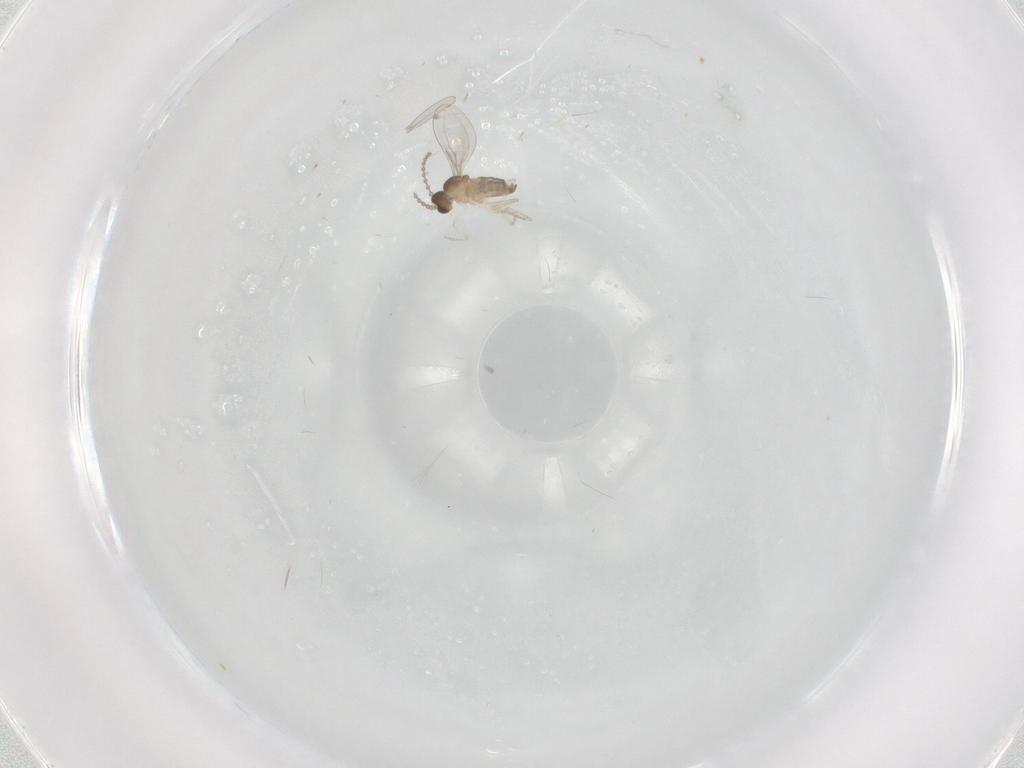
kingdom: Animalia
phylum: Arthropoda
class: Insecta
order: Diptera
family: Cecidomyiidae
